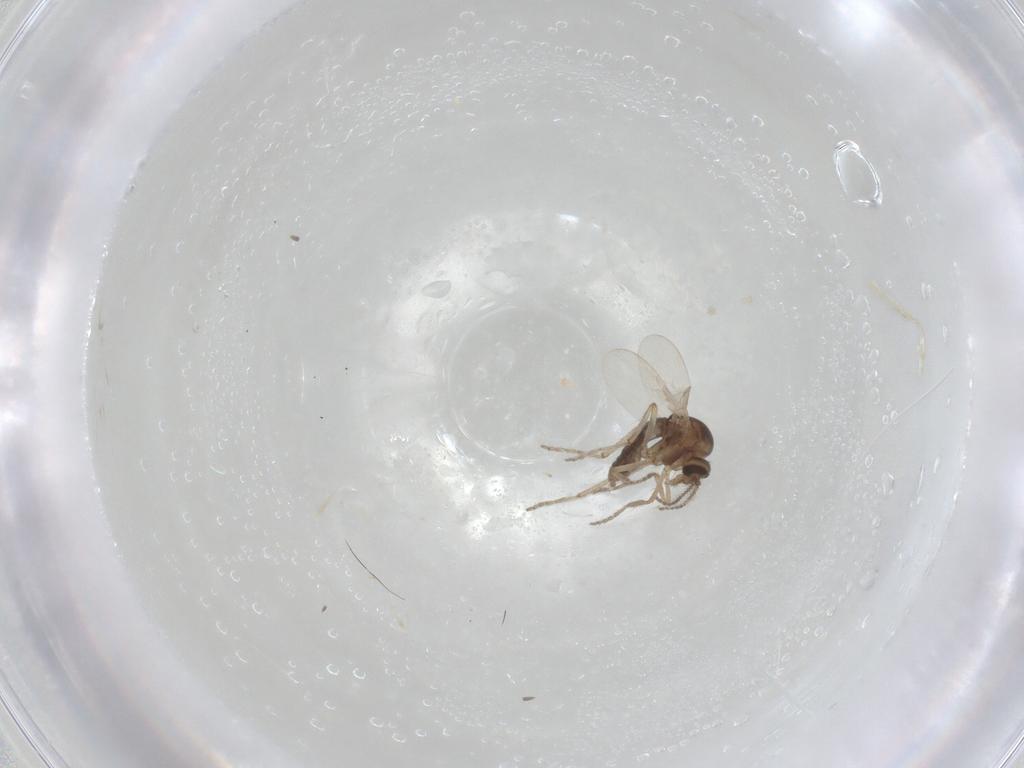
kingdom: Animalia
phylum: Arthropoda
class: Insecta
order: Diptera
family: Ceratopogonidae
